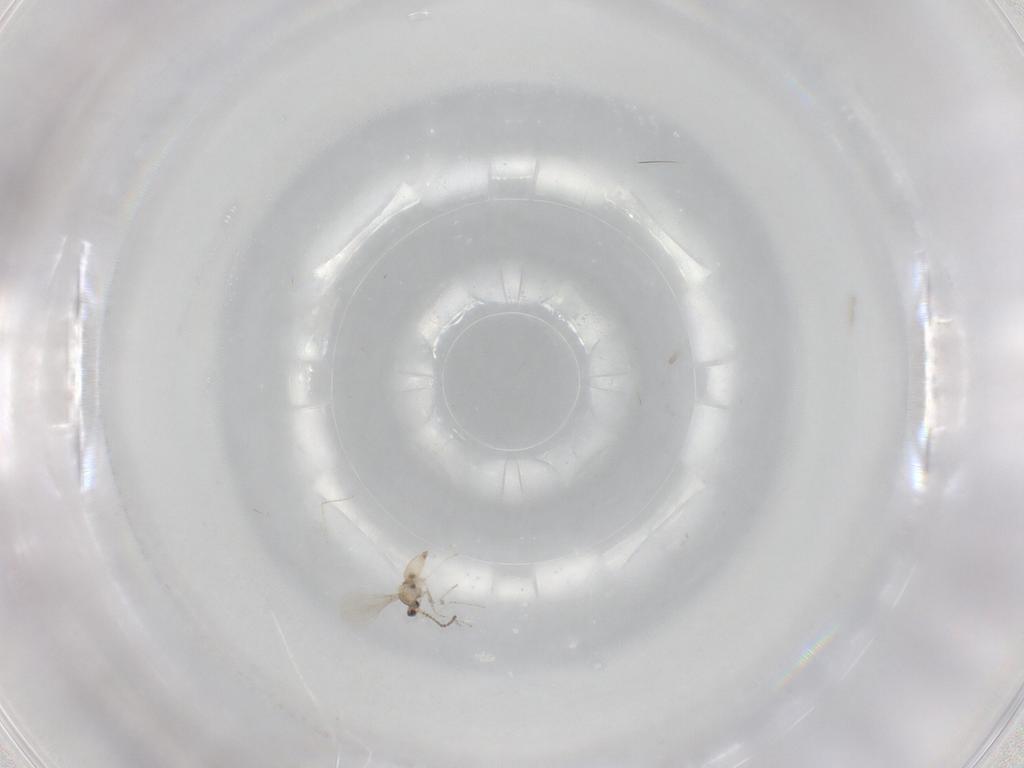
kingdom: Animalia
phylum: Arthropoda
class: Insecta
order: Diptera
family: Cecidomyiidae
